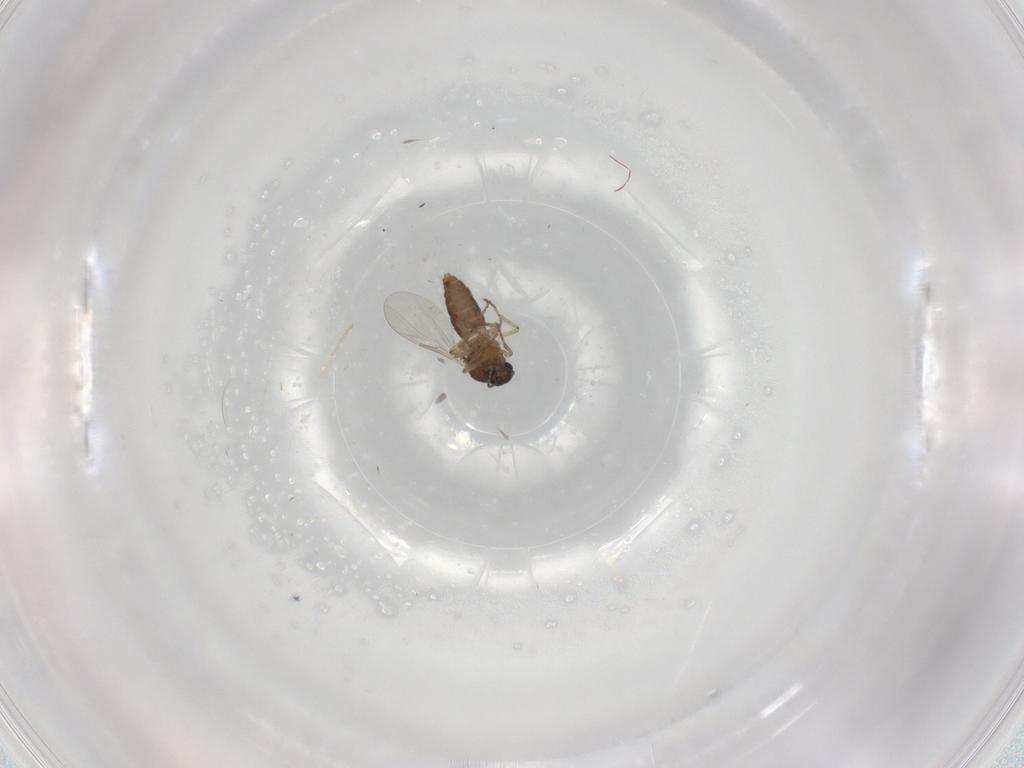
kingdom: Animalia
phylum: Arthropoda
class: Insecta
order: Diptera
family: Ceratopogonidae
